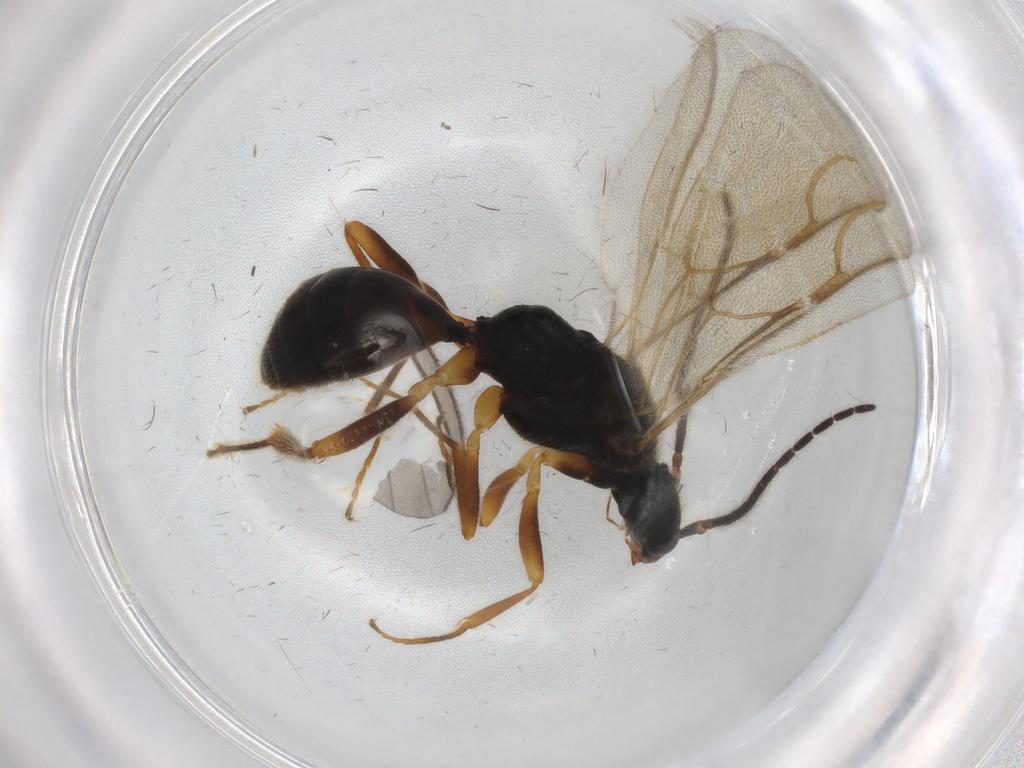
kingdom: Animalia
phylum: Arthropoda
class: Insecta
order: Hymenoptera
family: Bethylidae
